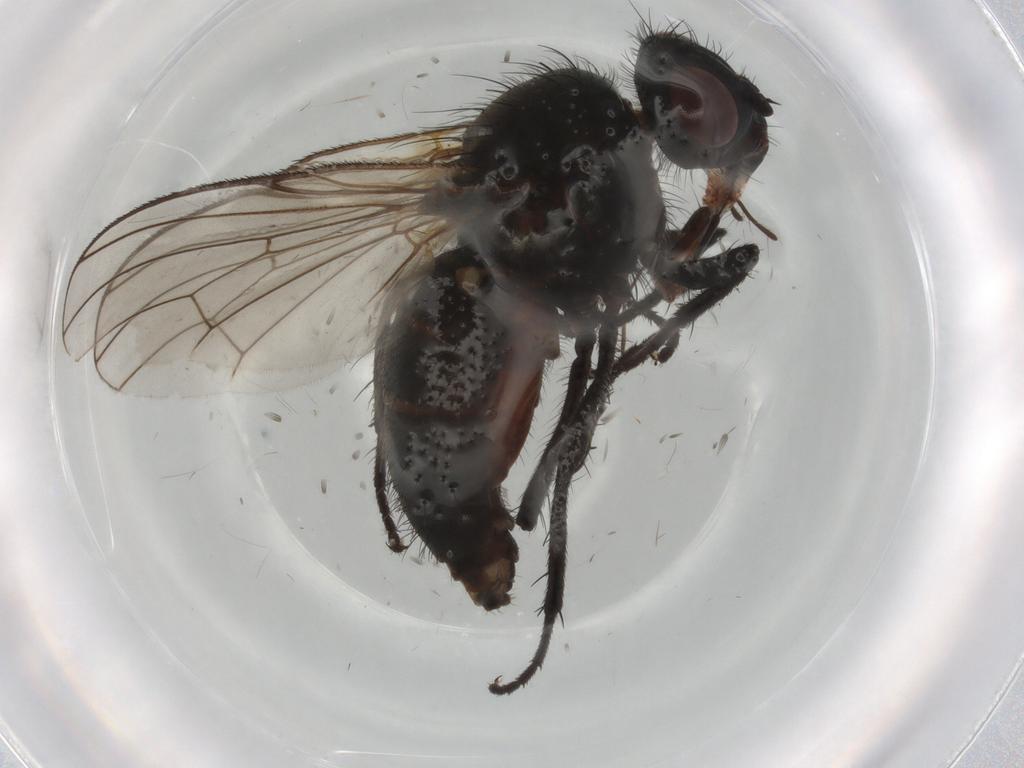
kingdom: Animalia
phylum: Arthropoda
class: Insecta
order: Diptera
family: Anthomyiidae
